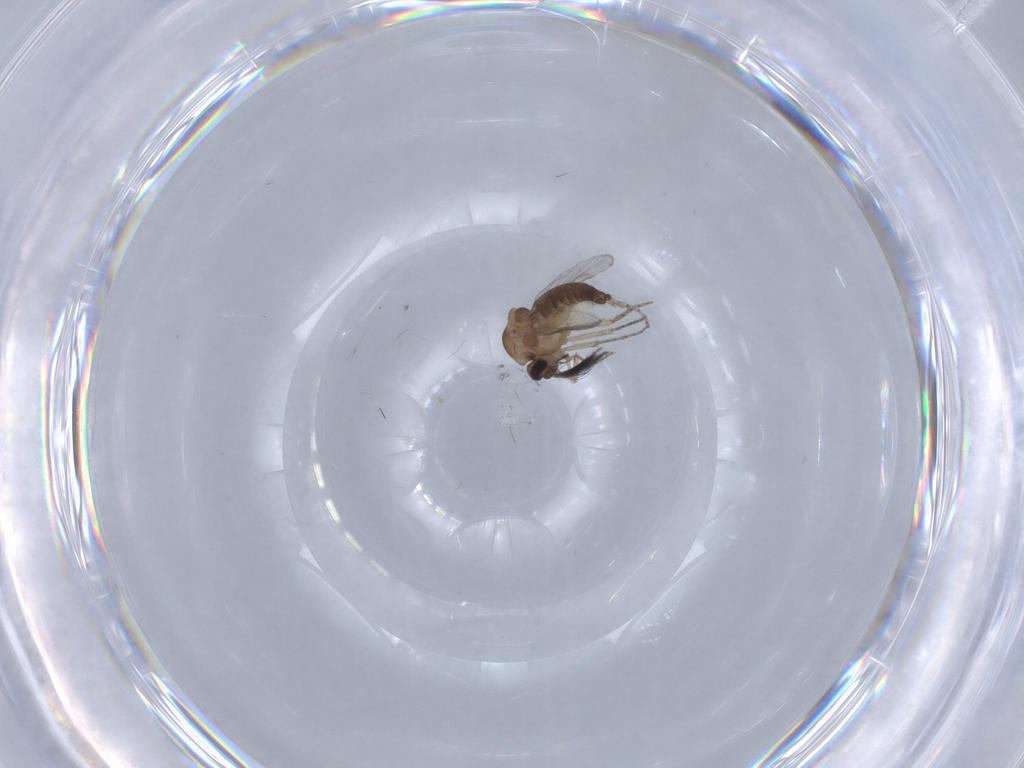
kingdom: Animalia
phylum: Arthropoda
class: Insecta
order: Diptera
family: Ceratopogonidae
